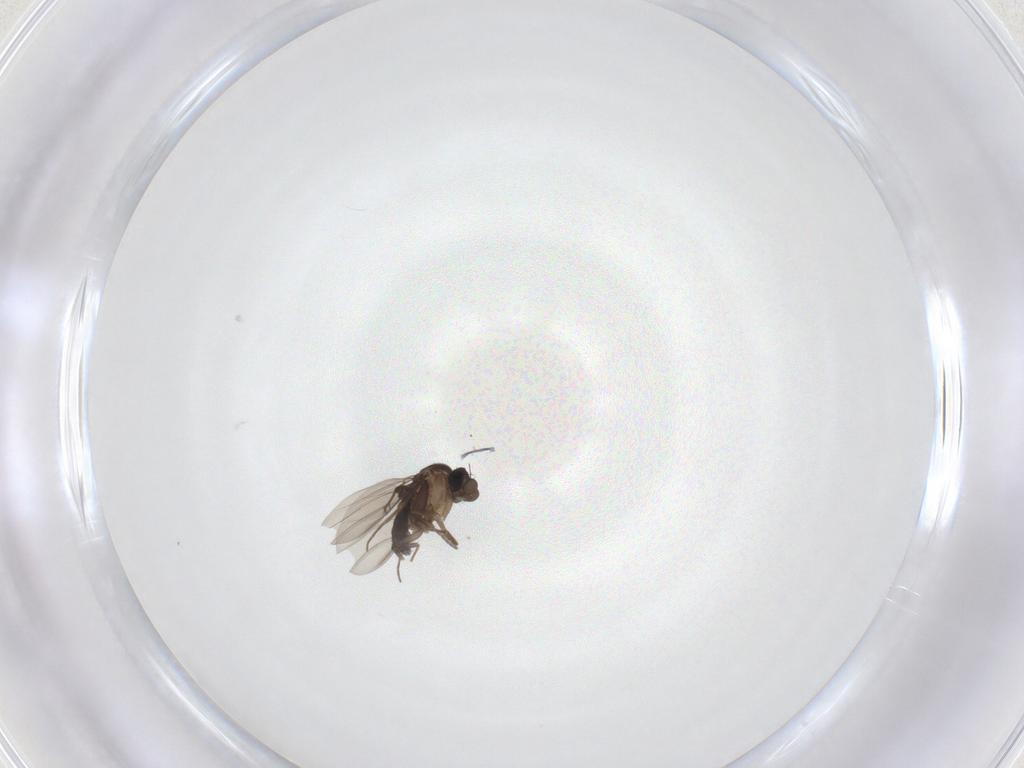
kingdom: Animalia
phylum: Arthropoda
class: Insecta
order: Diptera
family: Phoridae
